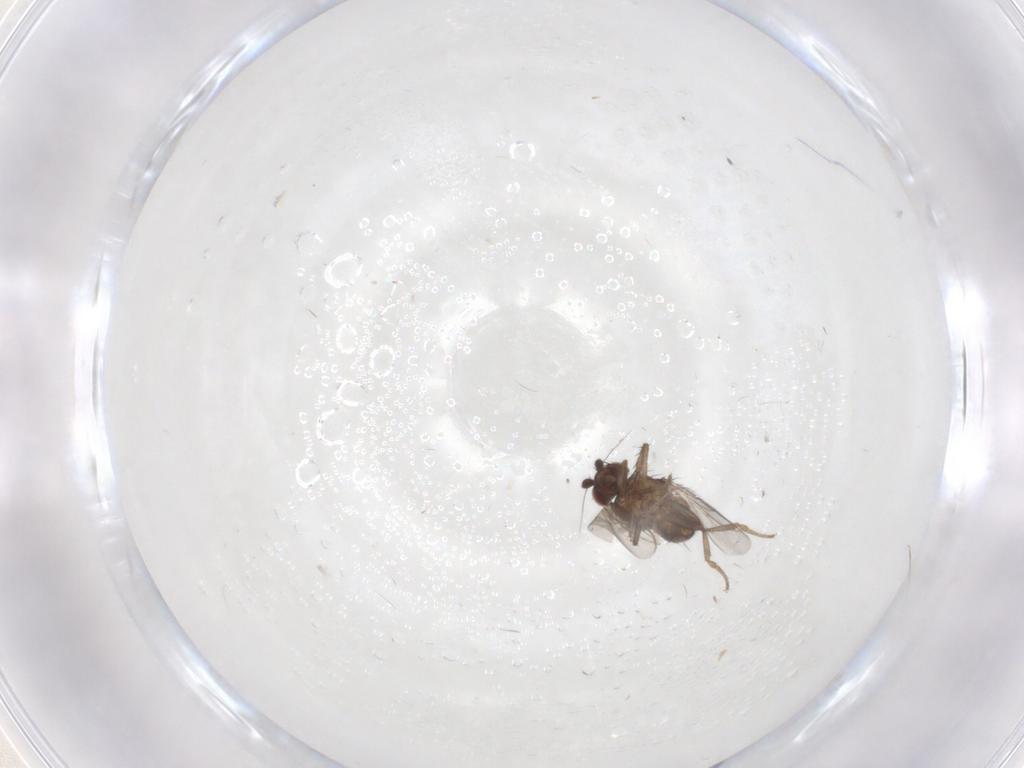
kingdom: Animalia
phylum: Arthropoda
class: Insecta
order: Diptera
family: Sphaeroceridae
